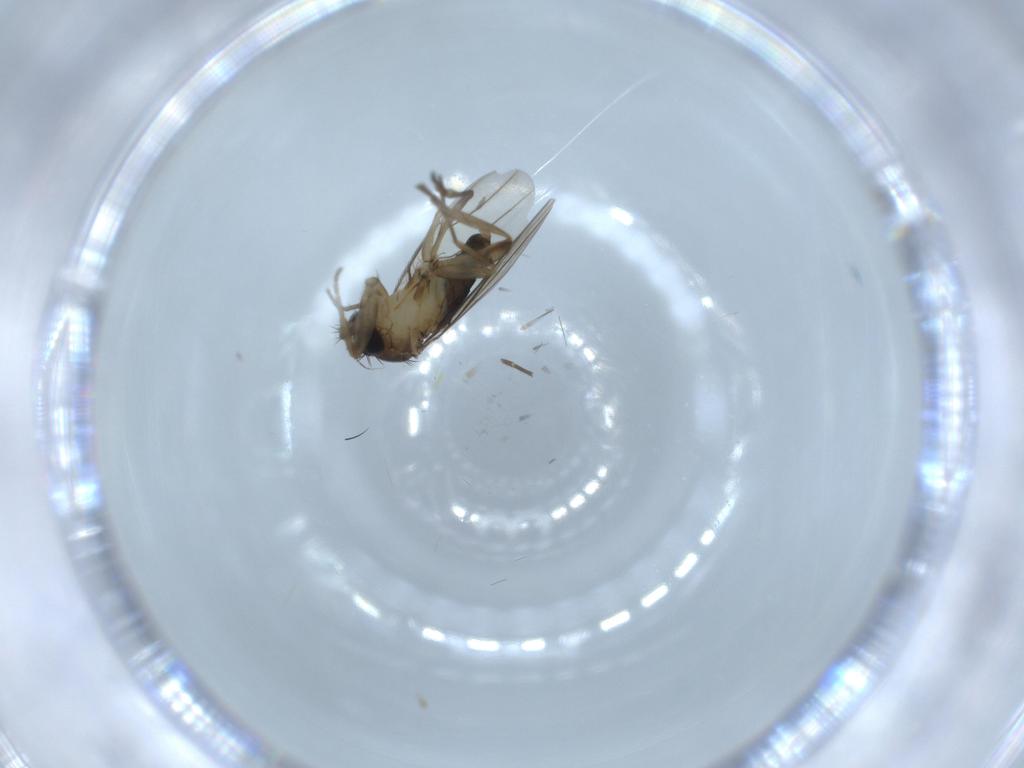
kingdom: Animalia
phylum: Arthropoda
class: Insecta
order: Diptera
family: Phoridae
